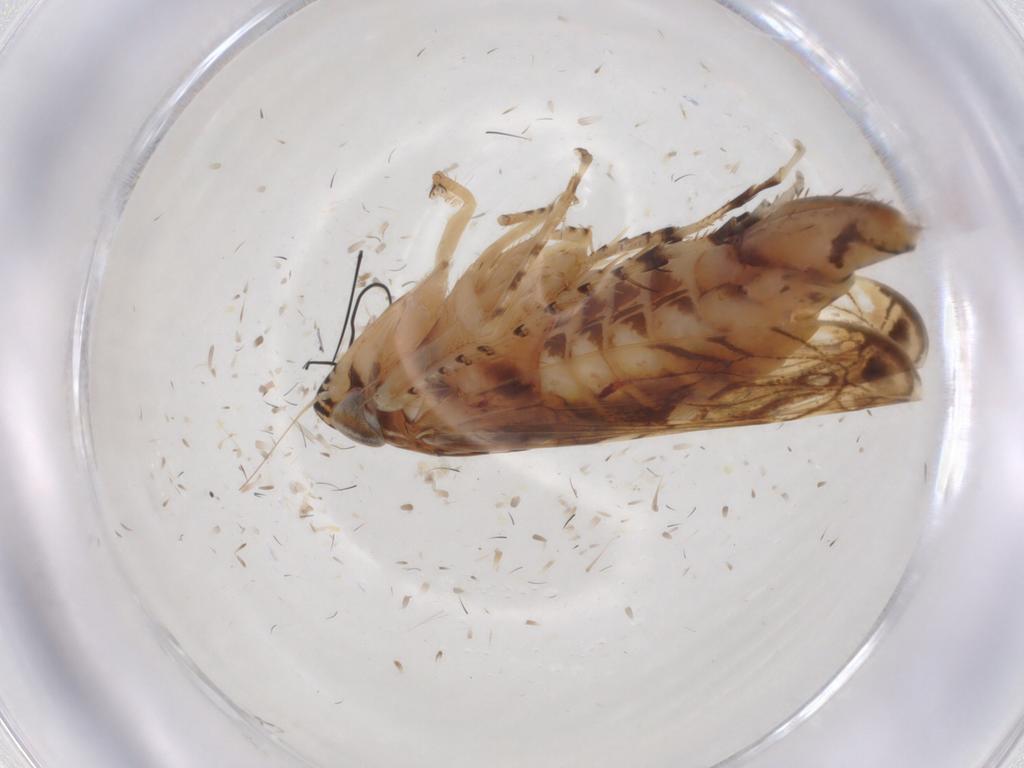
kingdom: Animalia
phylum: Arthropoda
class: Insecta
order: Hemiptera
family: Aphididae
